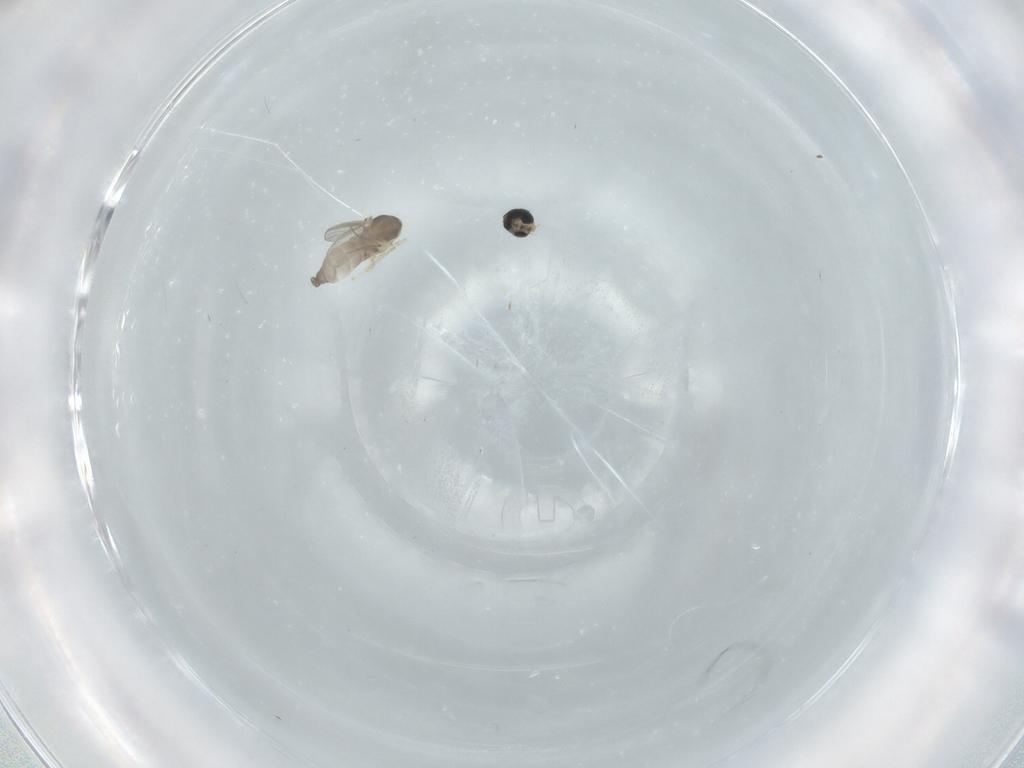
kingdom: Animalia
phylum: Arthropoda
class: Insecta
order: Diptera
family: Cecidomyiidae
